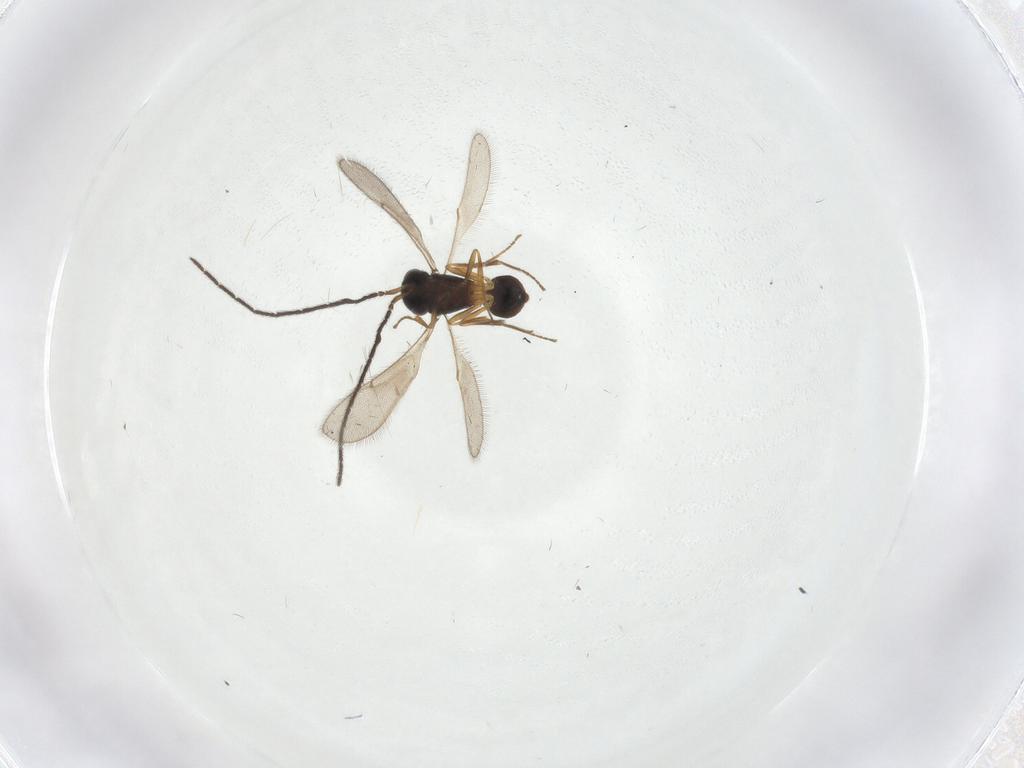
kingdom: Animalia
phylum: Arthropoda
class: Insecta
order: Hymenoptera
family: Scelionidae
